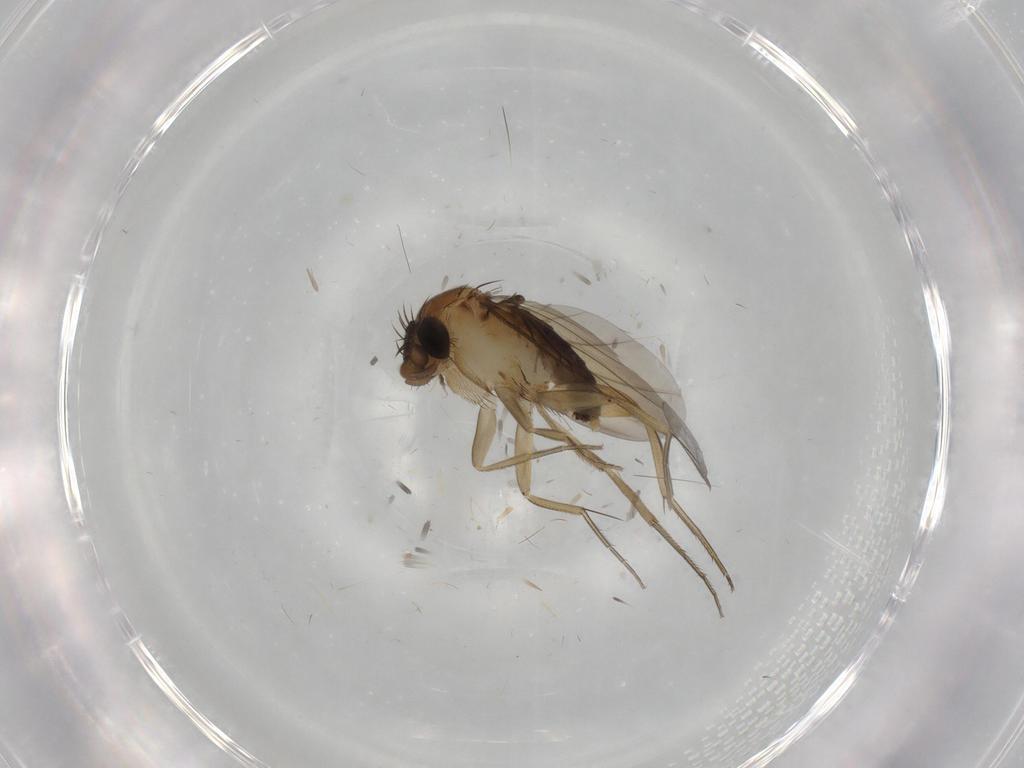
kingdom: Animalia
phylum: Arthropoda
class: Insecta
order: Diptera
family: Phoridae
